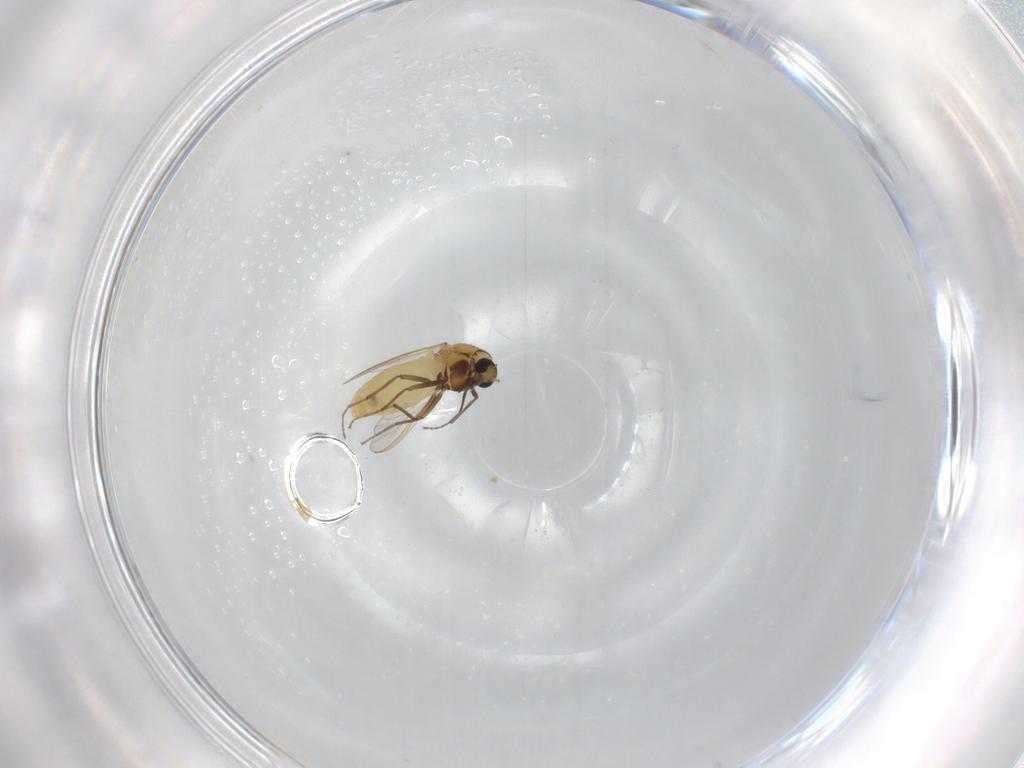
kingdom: Animalia
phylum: Arthropoda
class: Insecta
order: Diptera
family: Chironomidae
